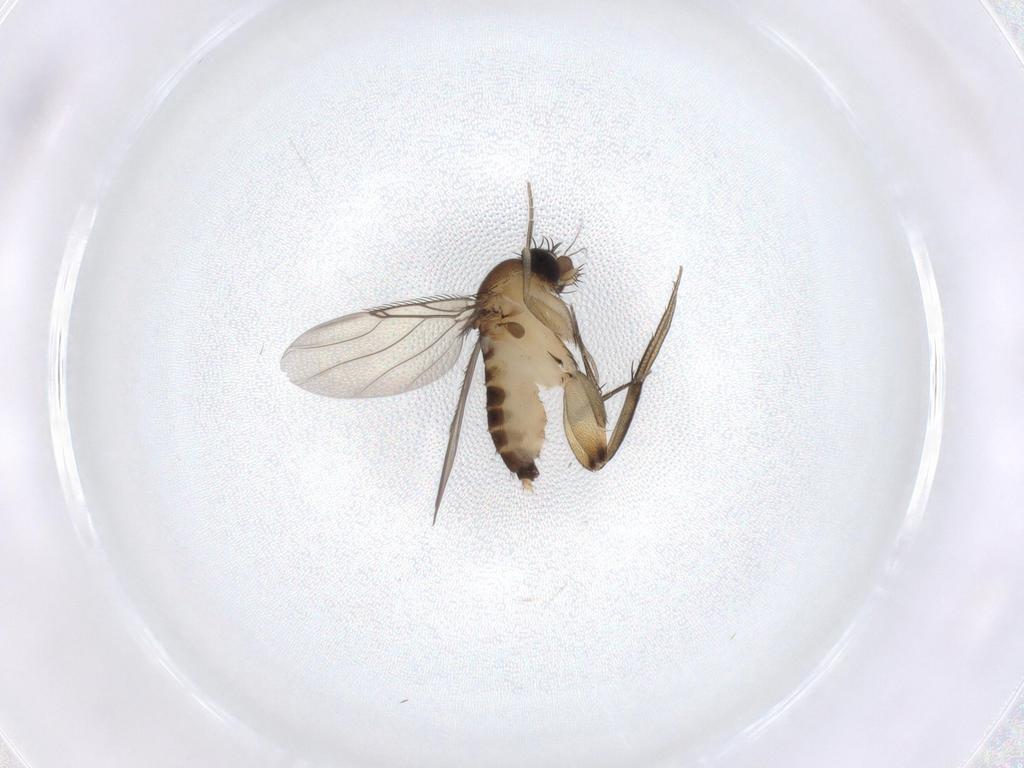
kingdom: Animalia
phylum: Arthropoda
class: Insecta
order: Diptera
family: Phoridae
